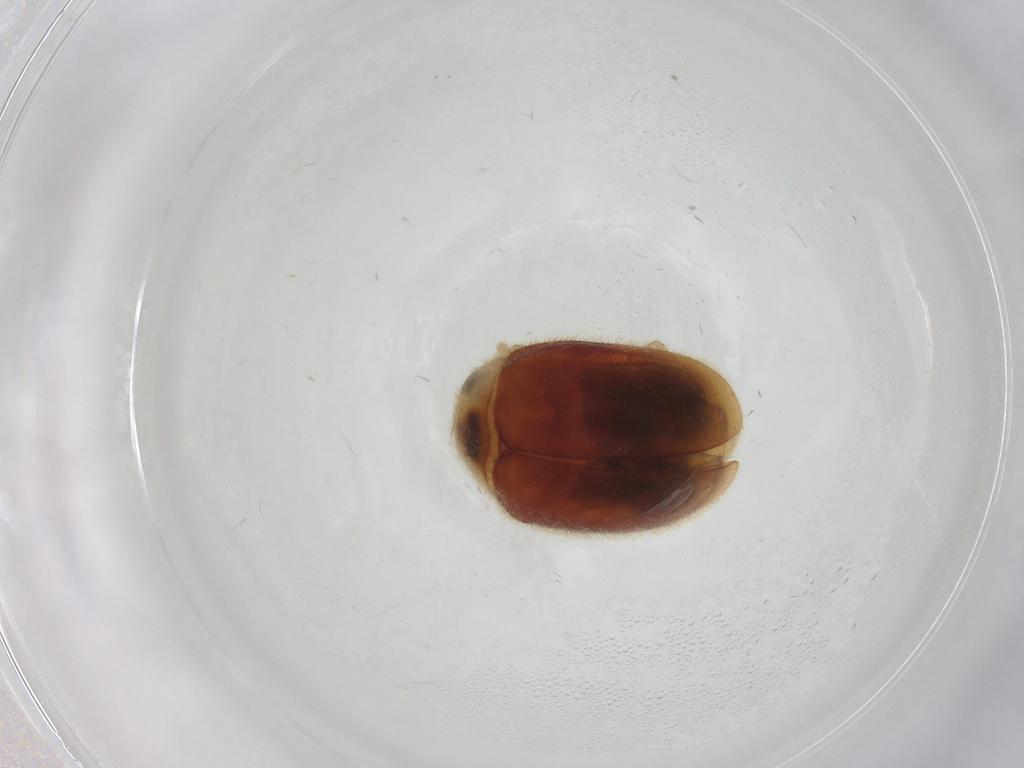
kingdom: Animalia
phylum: Arthropoda
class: Insecta
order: Coleoptera
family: Coccinellidae
